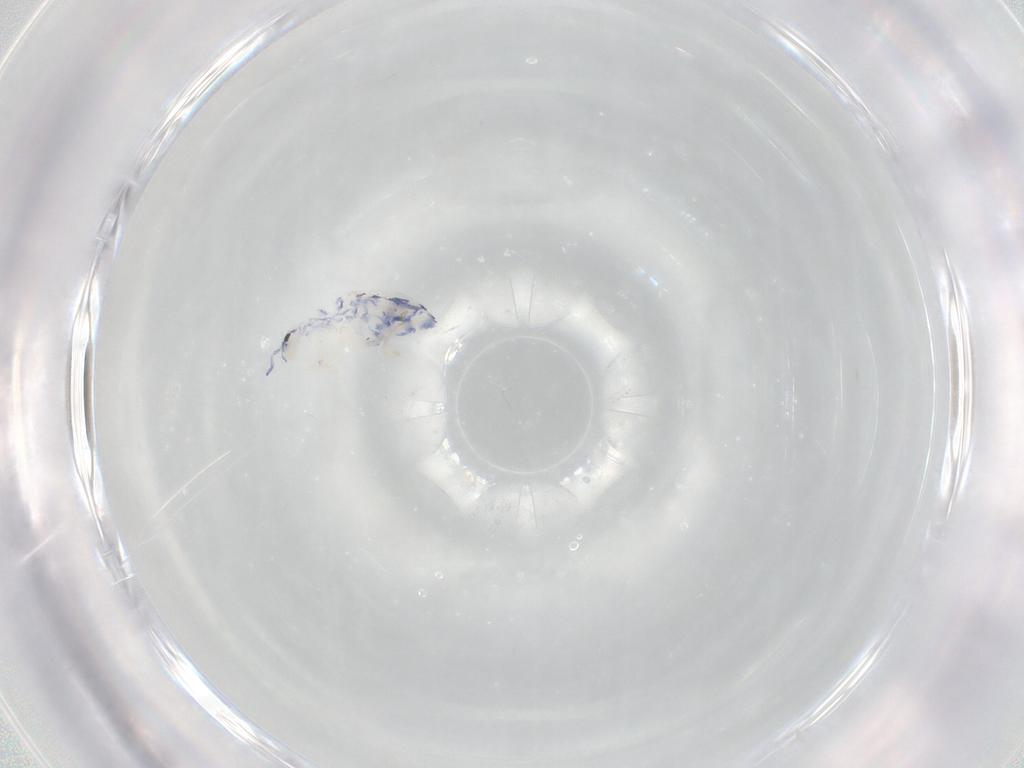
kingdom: Animalia
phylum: Arthropoda
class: Collembola
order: Entomobryomorpha
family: Entomobryidae
